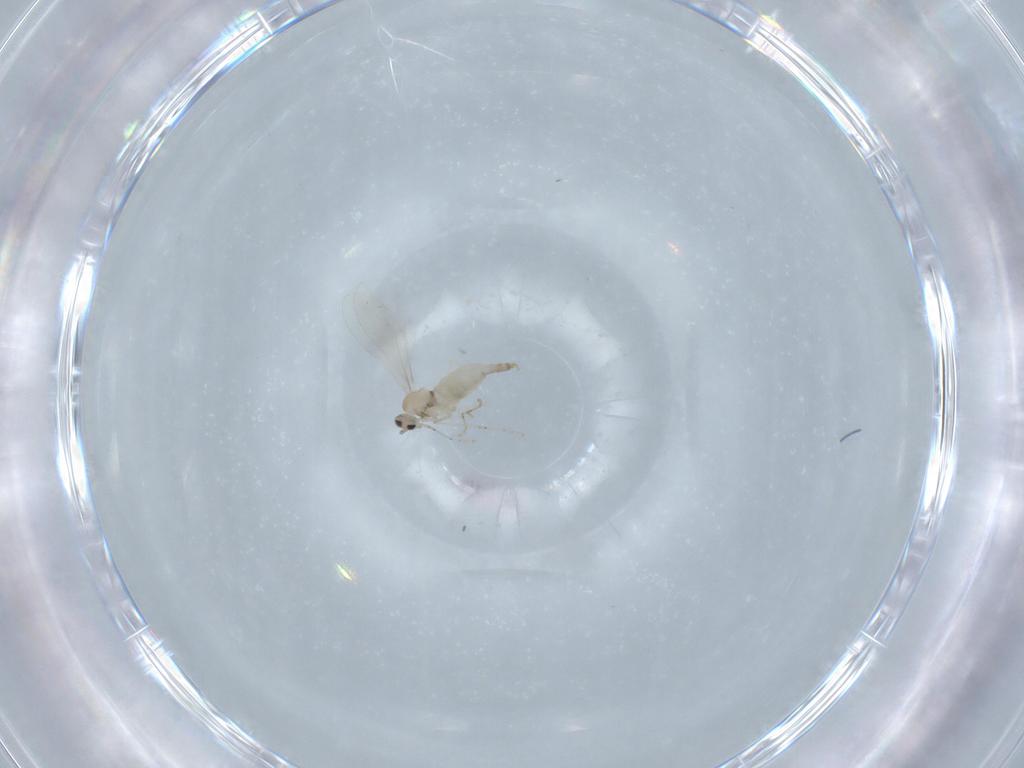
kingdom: Animalia
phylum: Arthropoda
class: Insecta
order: Diptera
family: Cecidomyiidae
